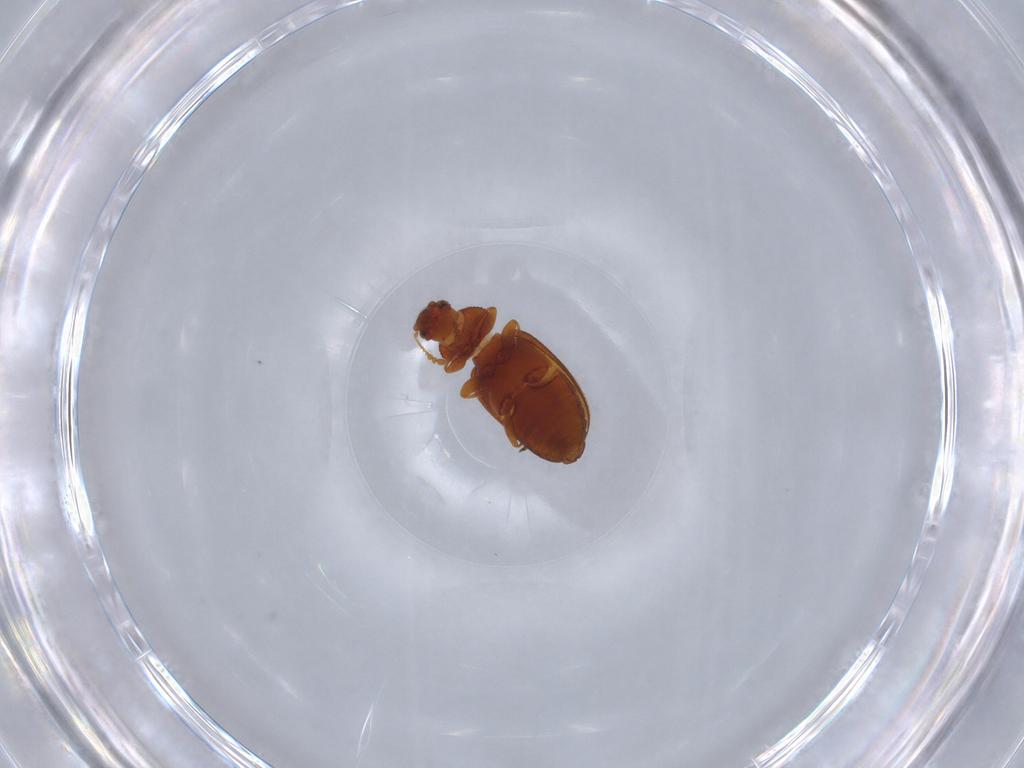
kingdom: Animalia
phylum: Arthropoda
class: Insecta
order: Coleoptera
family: Latridiidae
